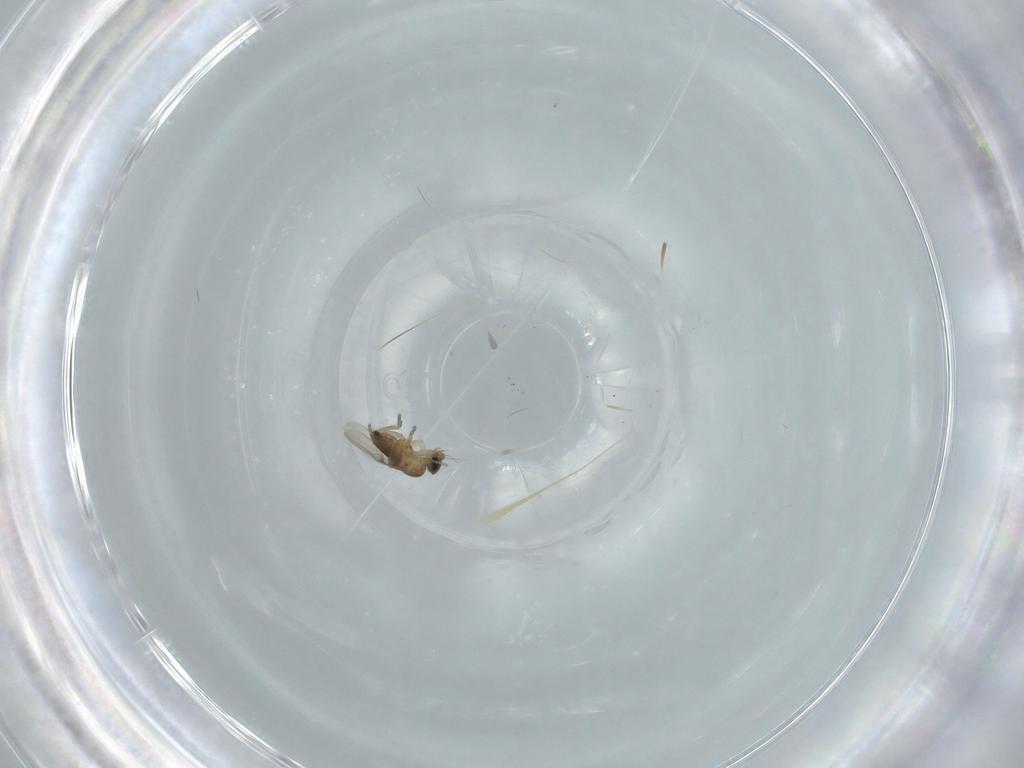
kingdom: Animalia
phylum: Arthropoda
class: Insecta
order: Diptera
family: Phoridae
